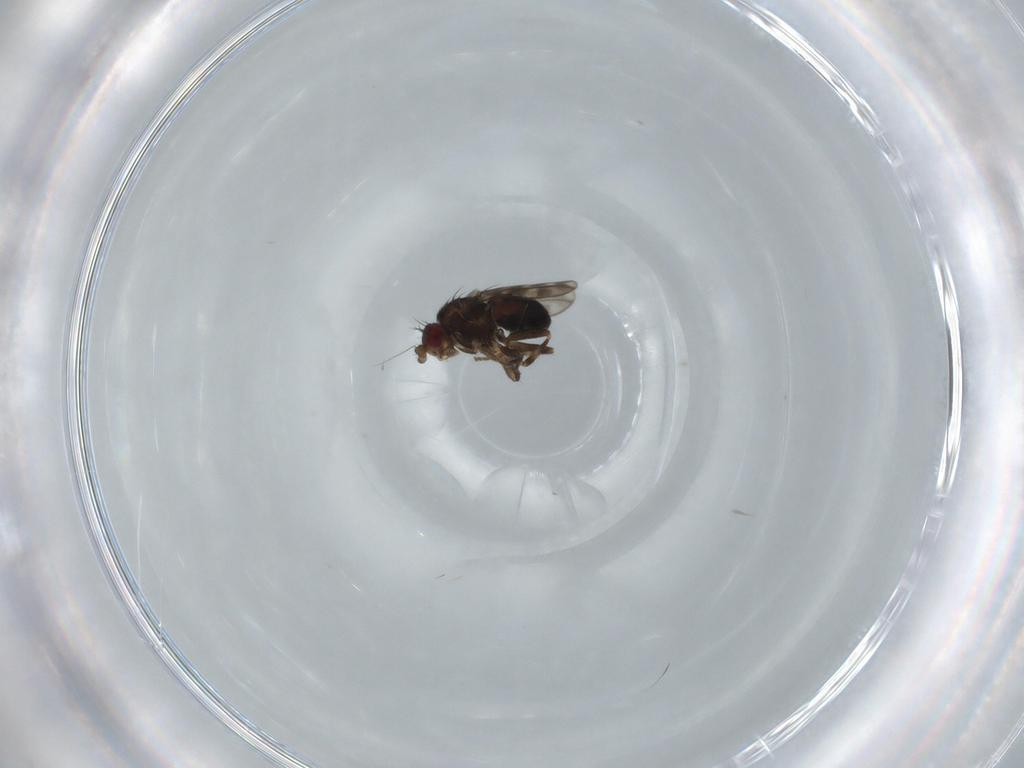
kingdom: Animalia
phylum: Arthropoda
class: Insecta
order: Diptera
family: Sphaeroceridae
